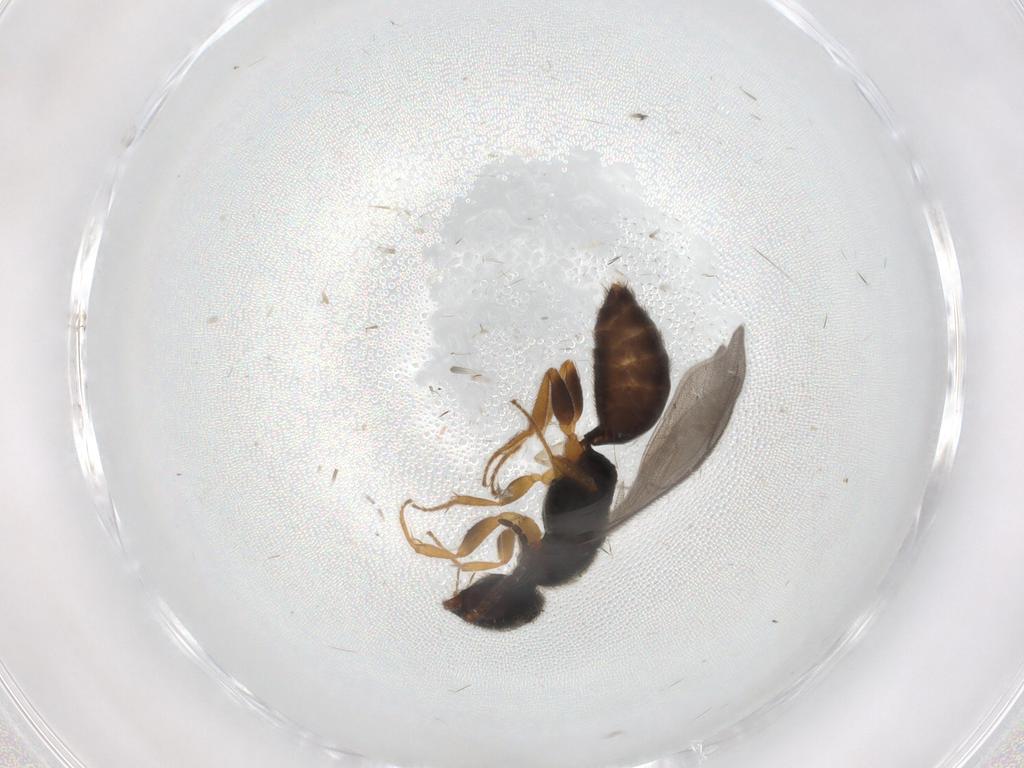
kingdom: Animalia
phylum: Arthropoda
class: Insecta
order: Hymenoptera
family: Bethylidae
